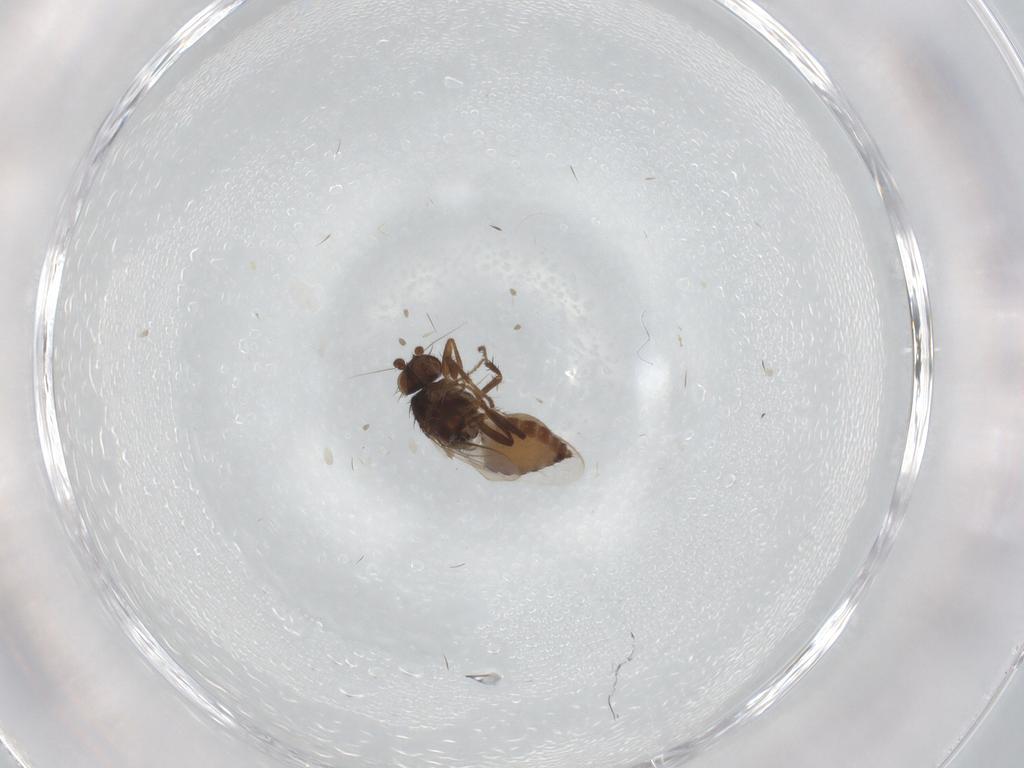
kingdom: Animalia
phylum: Arthropoda
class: Insecta
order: Diptera
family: Sphaeroceridae
